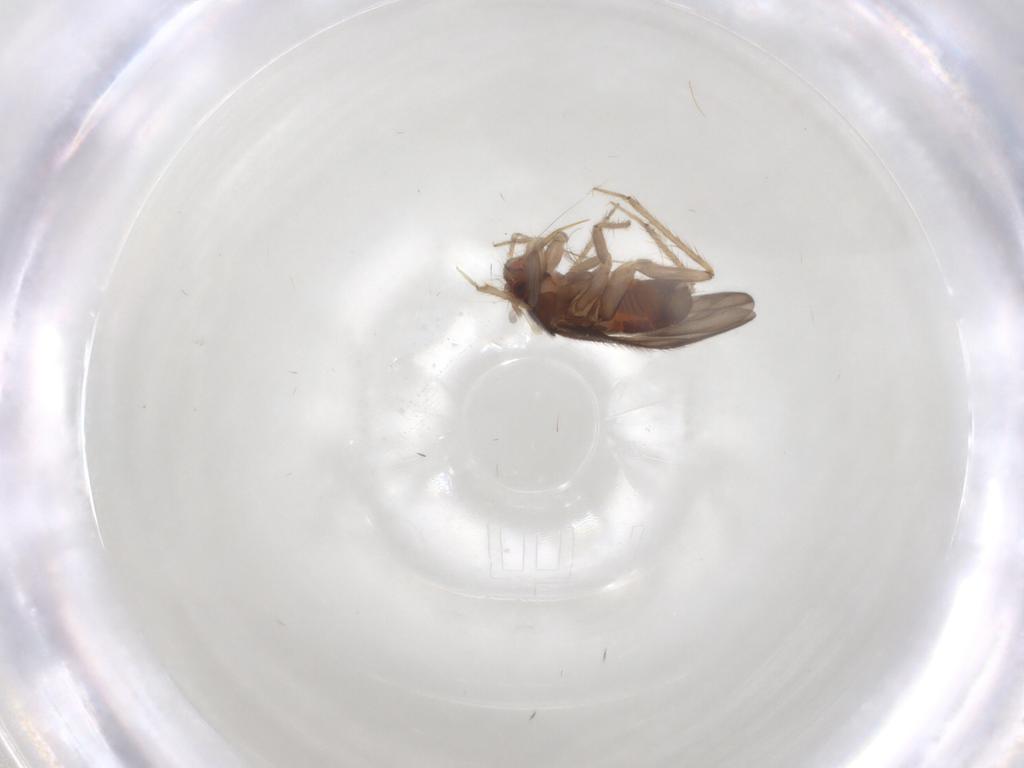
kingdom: Animalia
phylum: Arthropoda
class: Insecta
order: Hemiptera
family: Ceratocombidae
